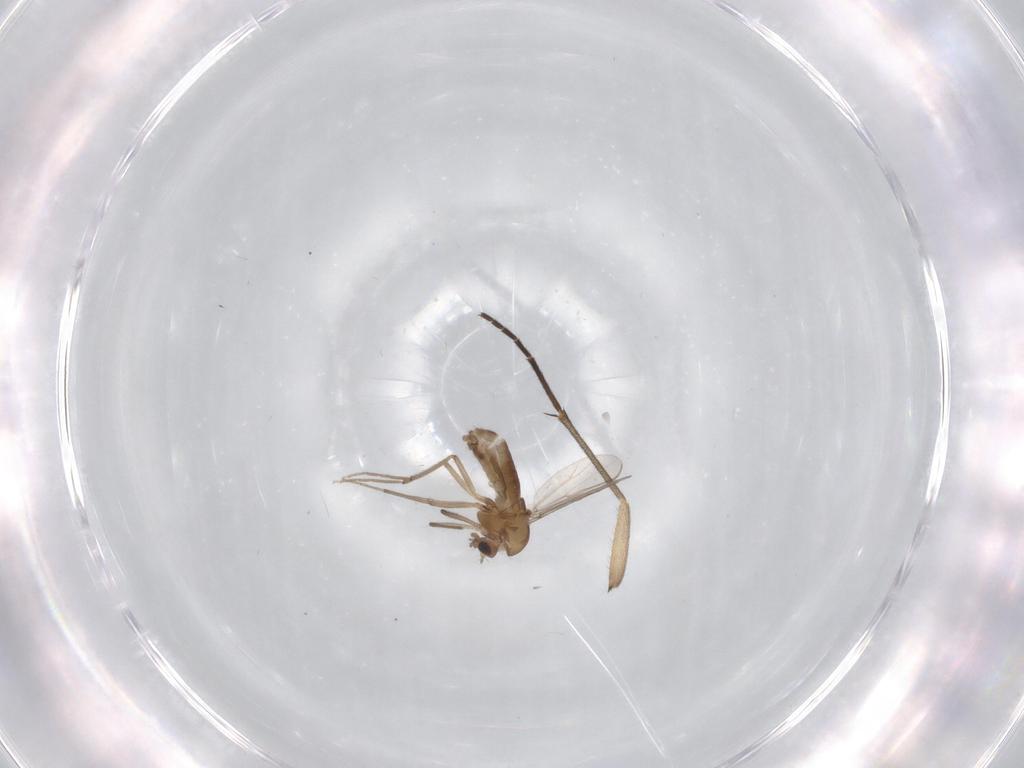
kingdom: Animalia
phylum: Arthropoda
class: Insecta
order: Diptera
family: Chironomidae
